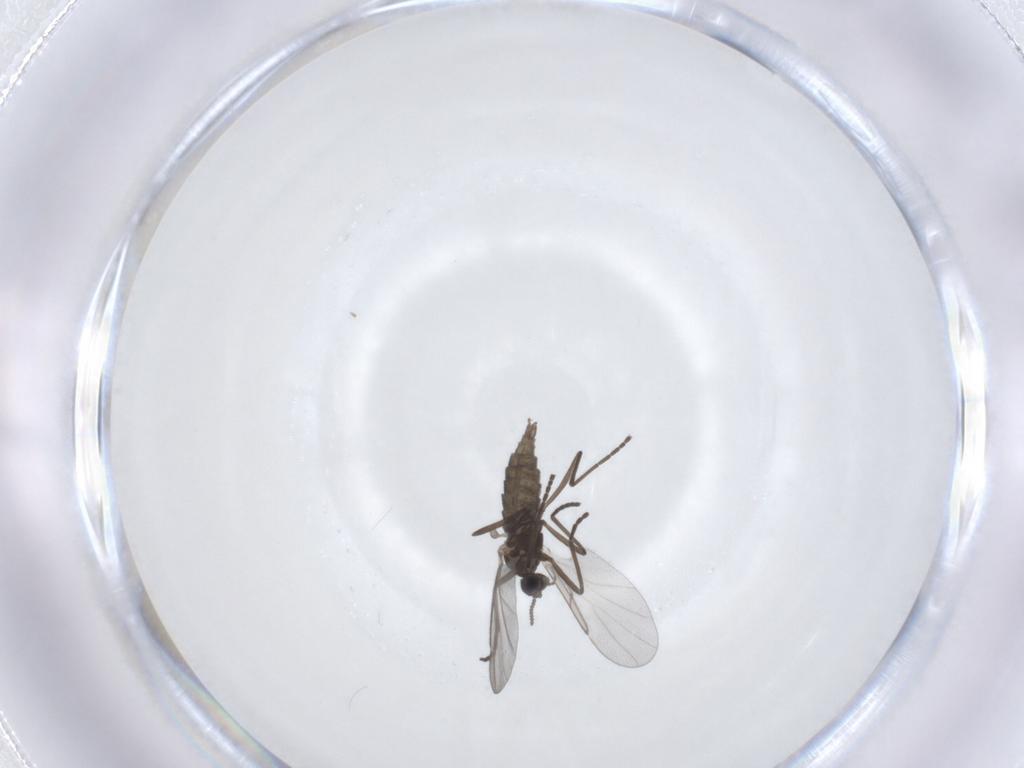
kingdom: Animalia
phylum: Arthropoda
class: Insecta
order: Diptera
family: Cecidomyiidae
